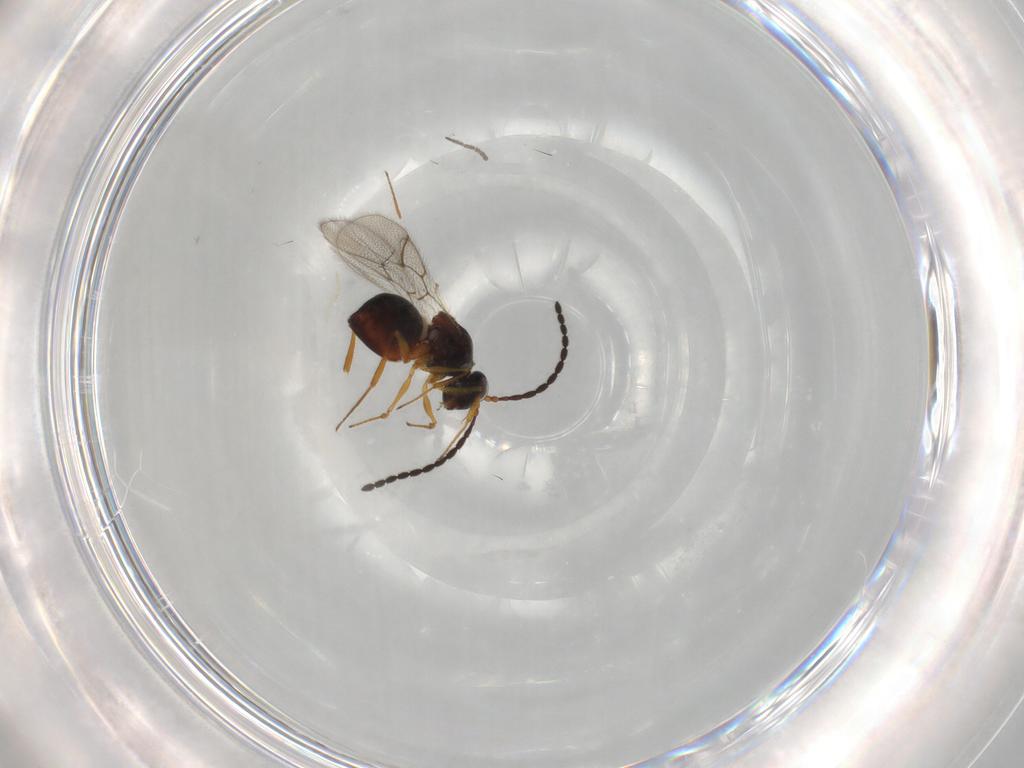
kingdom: Animalia
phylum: Arthropoda
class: Insecta
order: Hymenoptera
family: Figitidae
